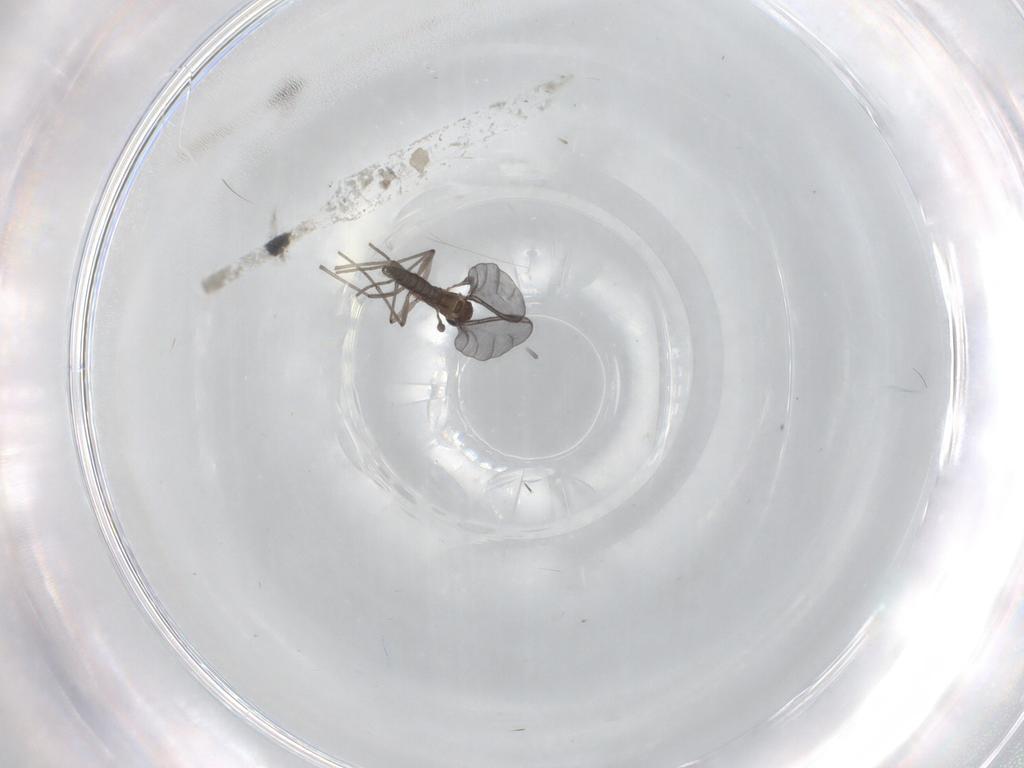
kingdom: Animalia
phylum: Arthropoda
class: Insecta
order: Diptera
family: Sciaridae
